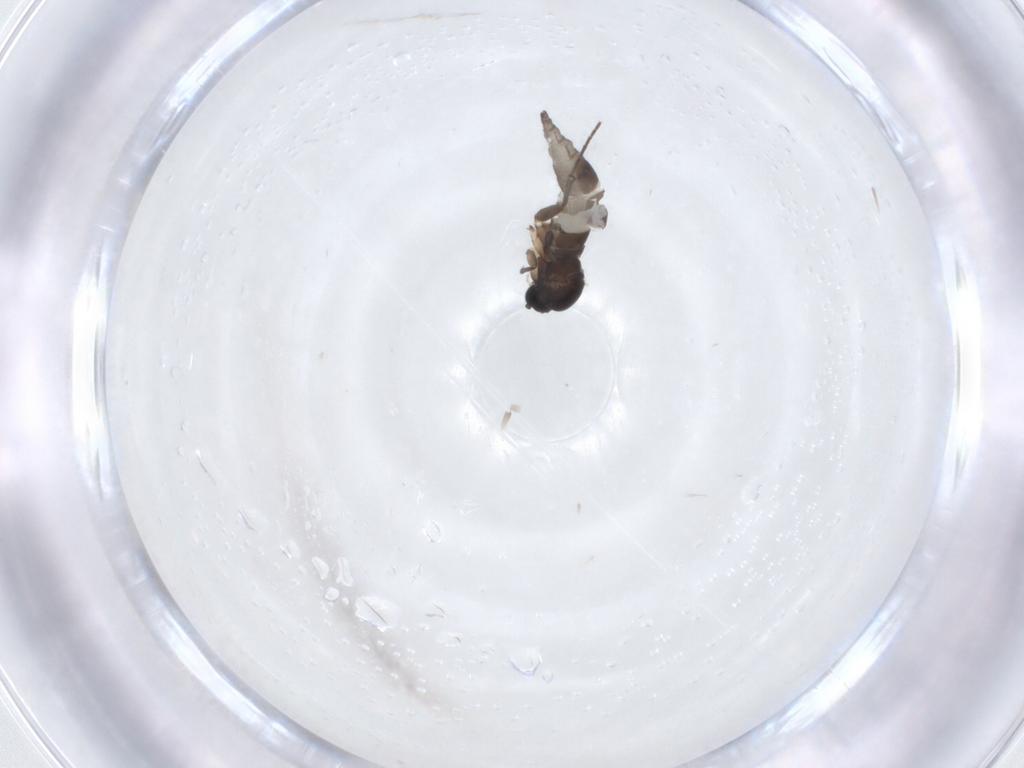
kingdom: Animalia
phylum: Arthropoda
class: Insecta
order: Diptera
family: Sciaridae
